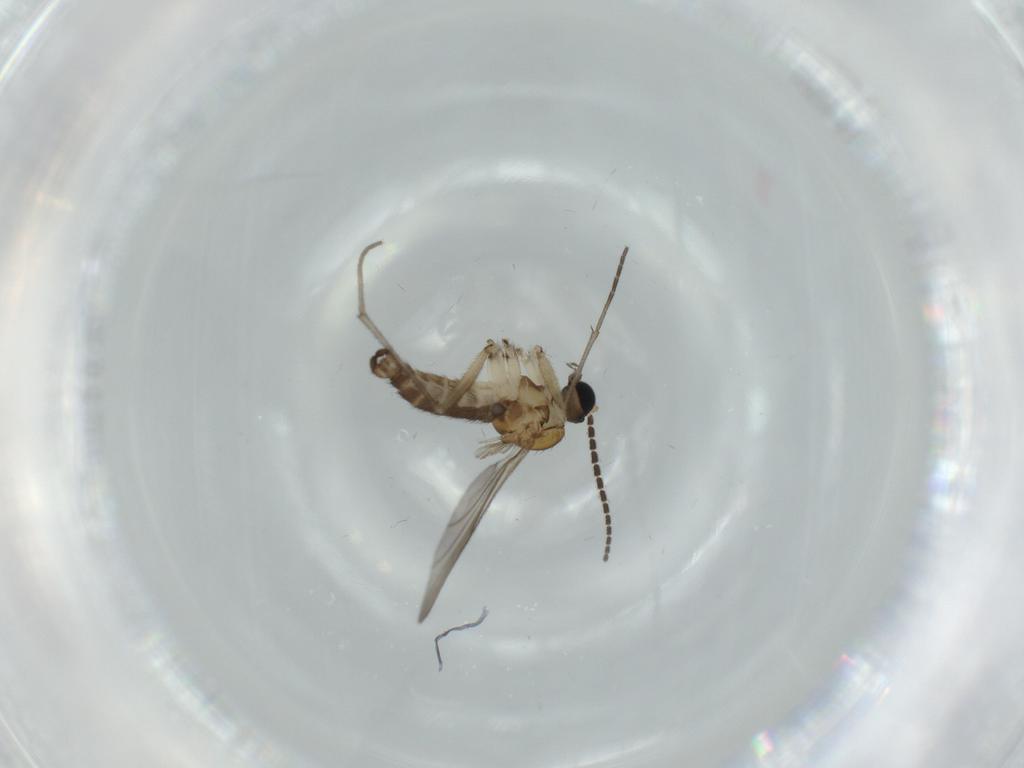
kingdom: Animalia
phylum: Arthropoda
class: Insecta
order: Diptera
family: Sciaridae
